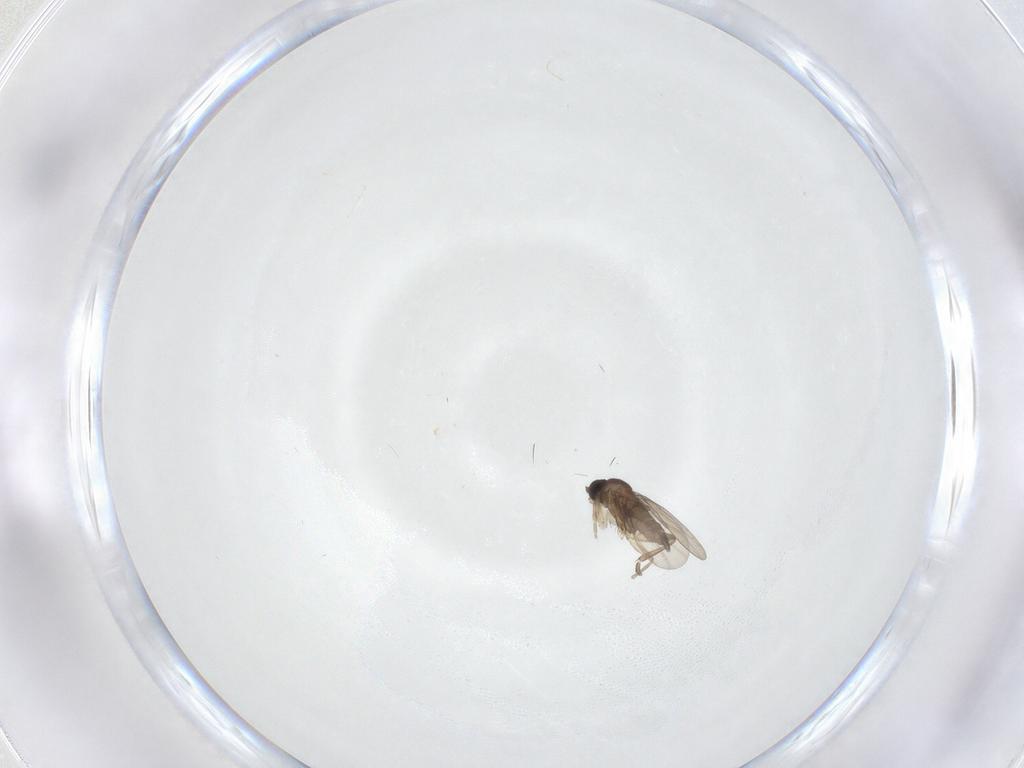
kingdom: Animalia
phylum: Arthropoda
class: Insecta
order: Diptera
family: Phoridae
